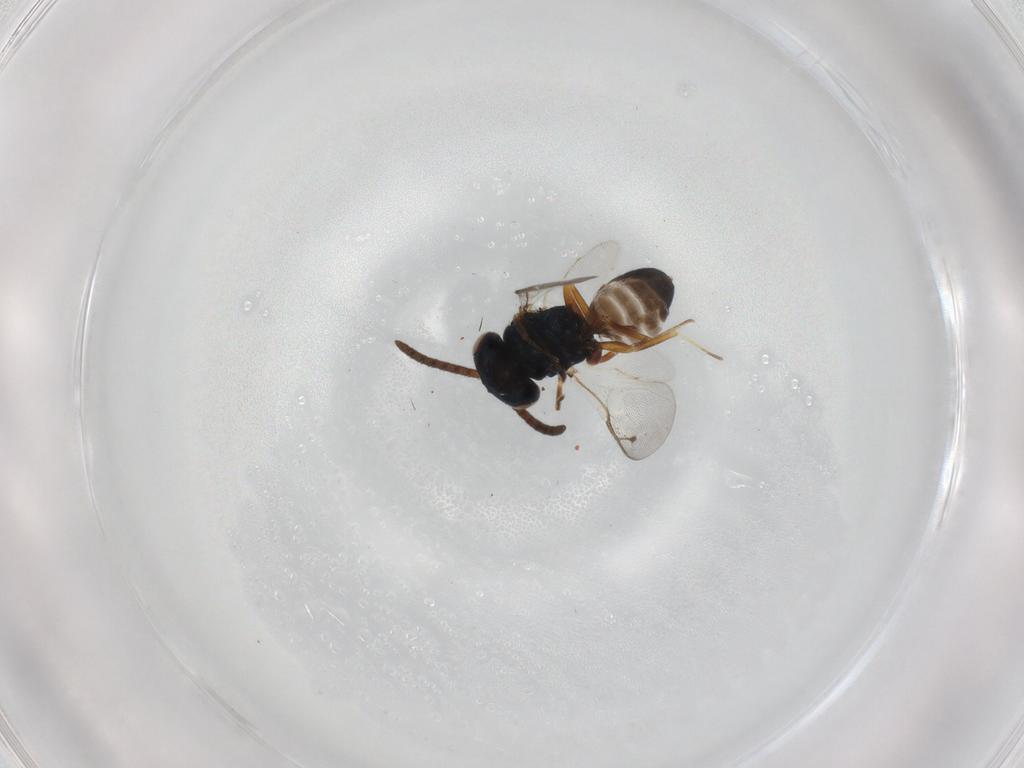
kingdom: Animalia
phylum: Arthropoda
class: Insecta
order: Hymenoptera
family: Pteromalidae
